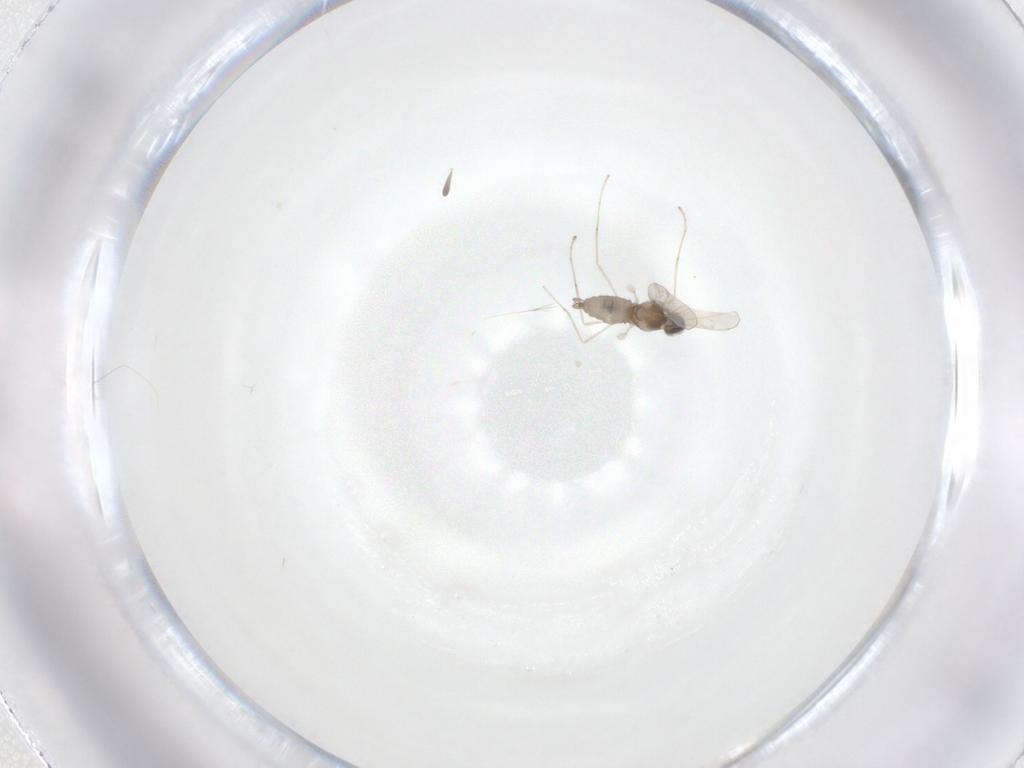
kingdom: Animalia
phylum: Arthropoda
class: Insecta
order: Diptera
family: Cecidomyiidae
